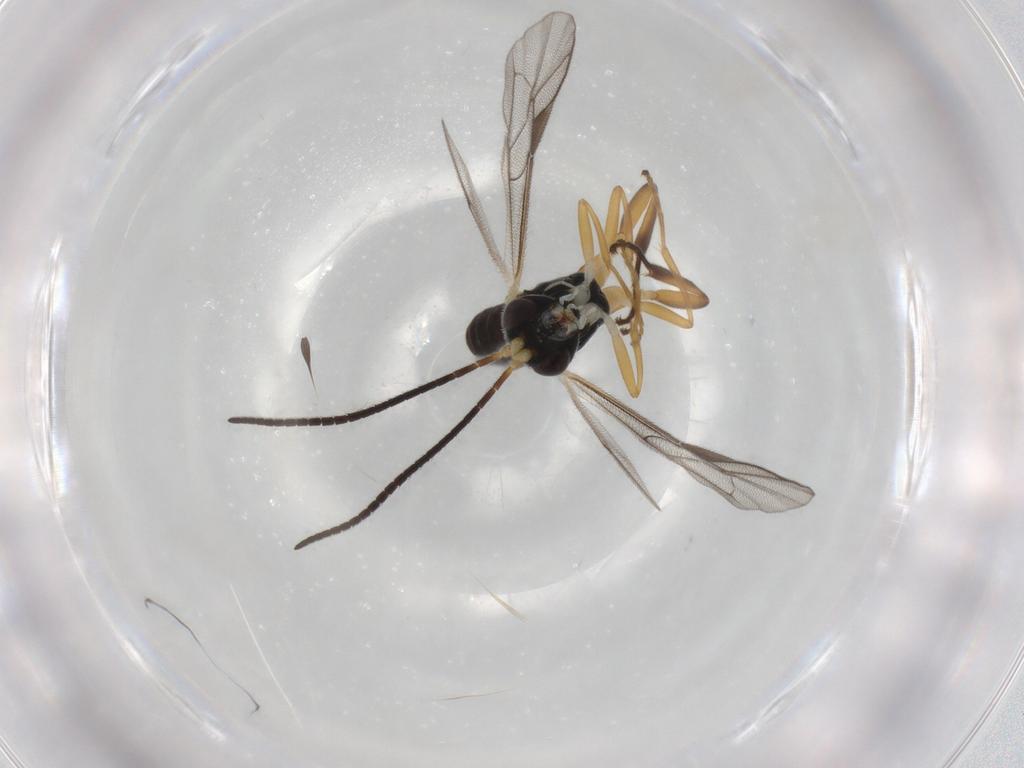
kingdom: Animalia
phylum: Arthropoda
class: Insecta
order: Hymenoptera
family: Ichneumonidae
